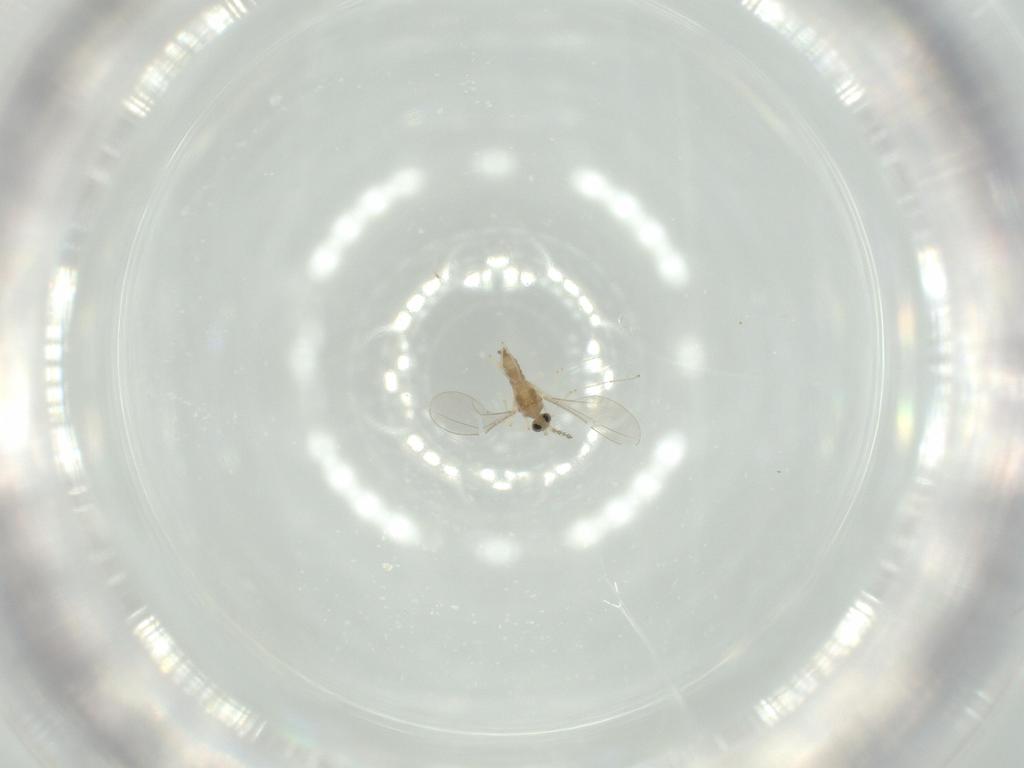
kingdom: Animalia
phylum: Arthropoda
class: Insecta
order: Diptera
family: Cecidomyiidae
